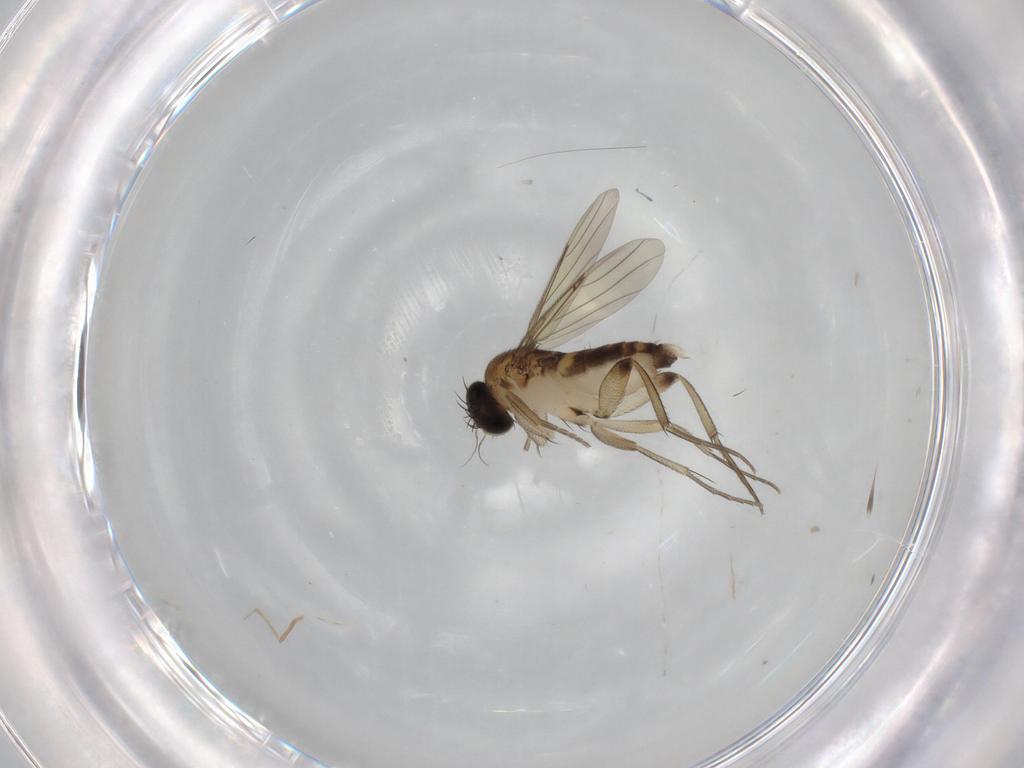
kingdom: Animalia
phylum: Arthropoda
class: Insecta
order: Diptera
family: Phoridae
